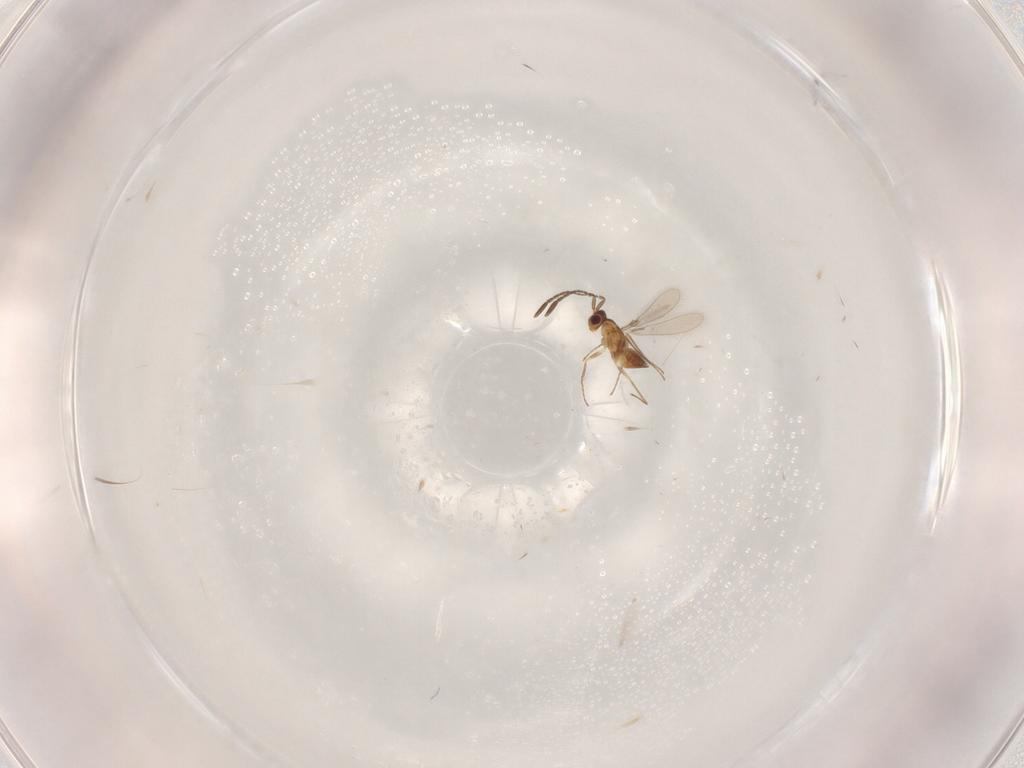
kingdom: Animalia
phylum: Arthropoda
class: Insecta
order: Hymenoptera
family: Mymaridae
